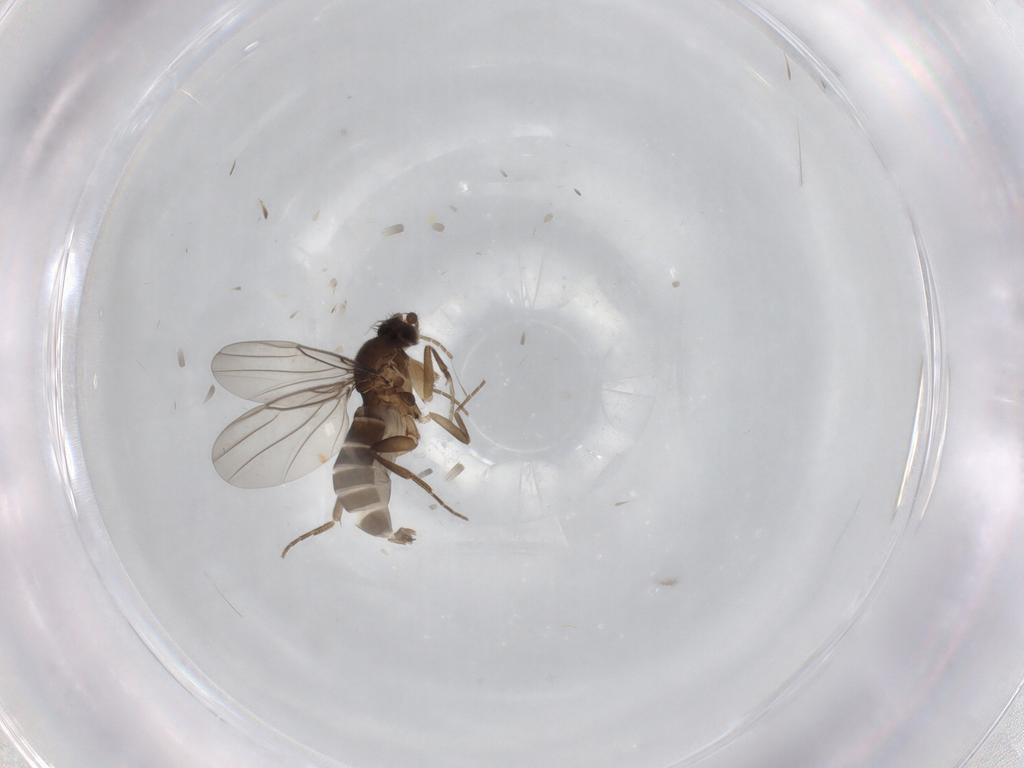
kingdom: Animalia
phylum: Arthropoda
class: Insecta
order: Diptera
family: Phoridae
